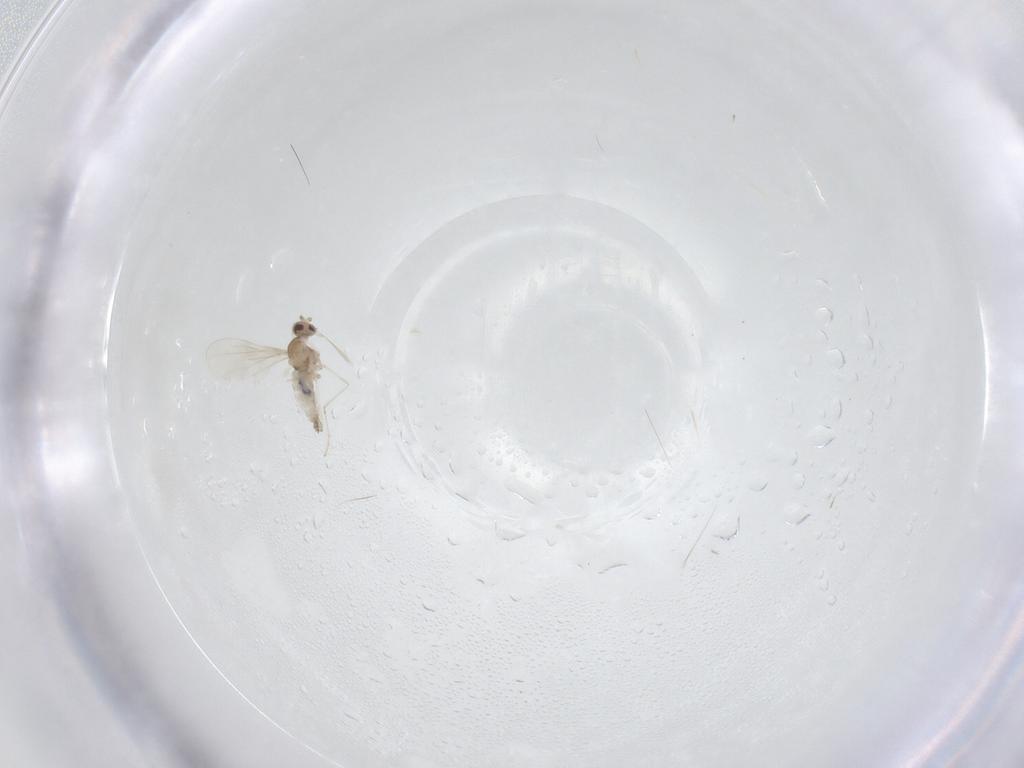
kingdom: Animalia
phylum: Arthropoda
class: Insecta
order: Diptera
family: Cecidomyiidae
